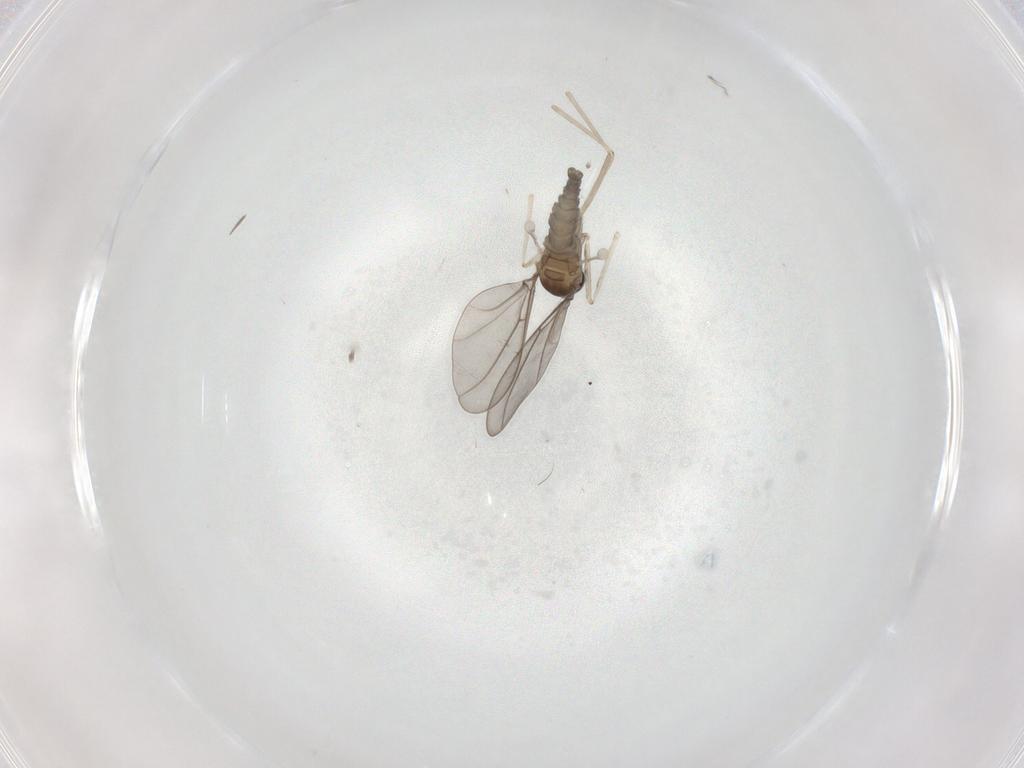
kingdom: Animalia
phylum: Arthropoda
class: Insecta
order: Diptera
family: Cecidomyiidae
